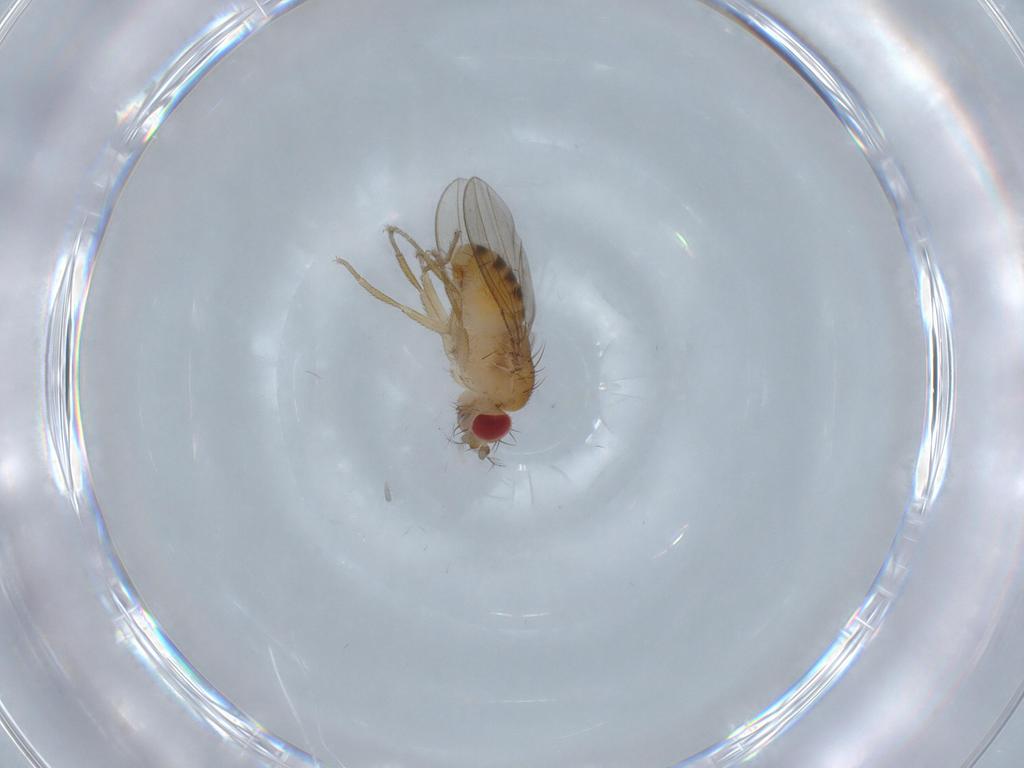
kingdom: Animalia
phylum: Arthropoda
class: Insecta
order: Diptera
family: Drosophilidae
